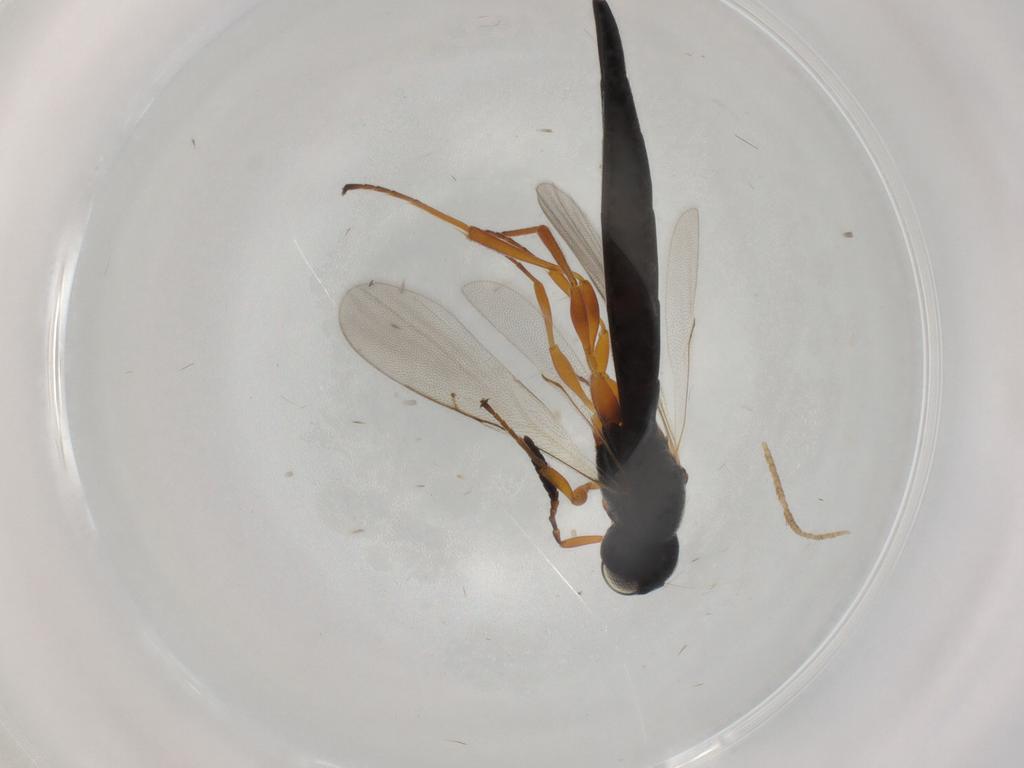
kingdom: Animalia
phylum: Arthropoda
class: Insecta
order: Hymenoptera
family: Scelionidae
